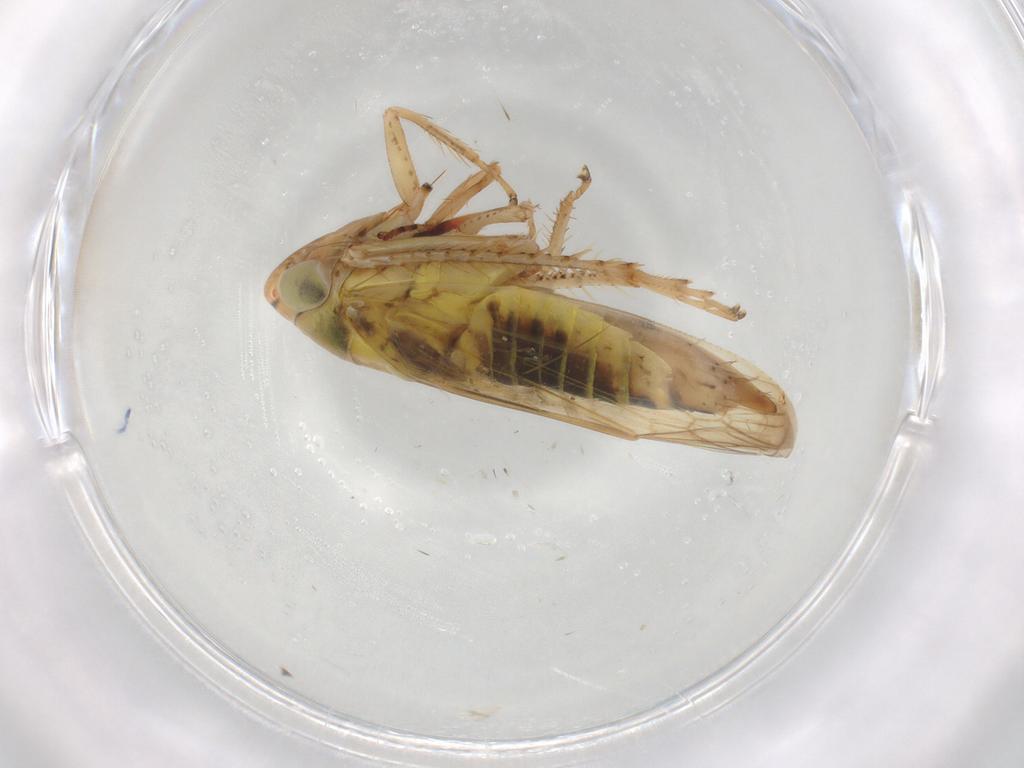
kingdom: Animalia
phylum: Arthropoda
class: Insecta
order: Hemiptera
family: Cicadellidae
